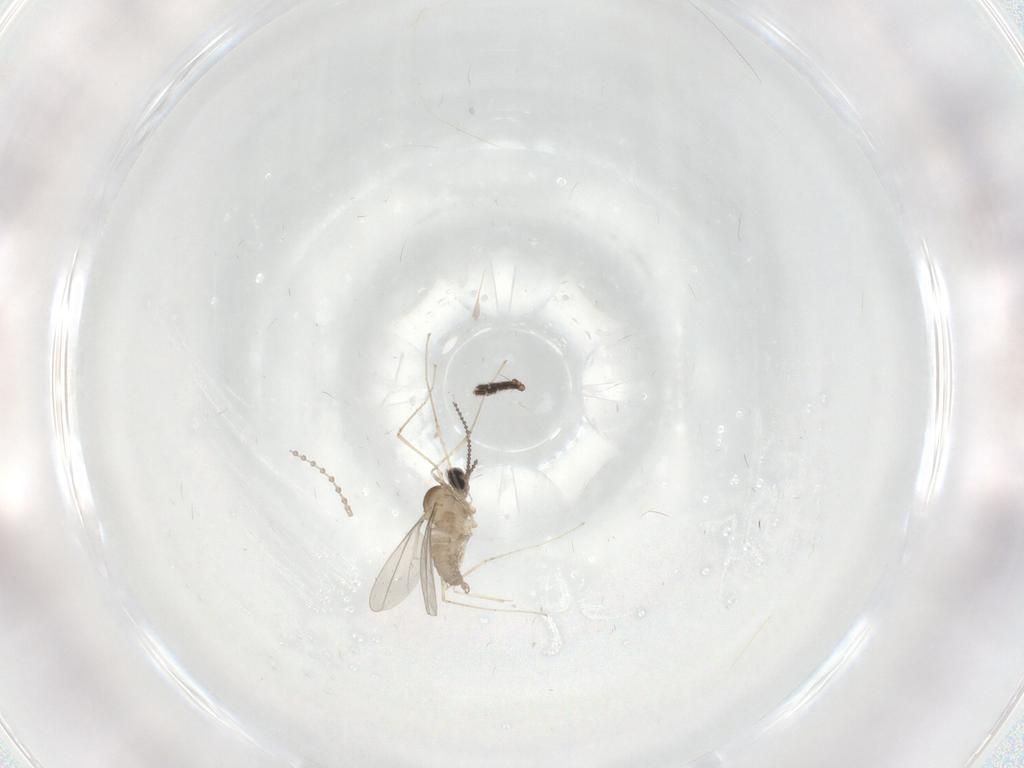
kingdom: Animalia
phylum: Arthropoda
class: Insecta
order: Diptera
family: Cecidomyiidae
